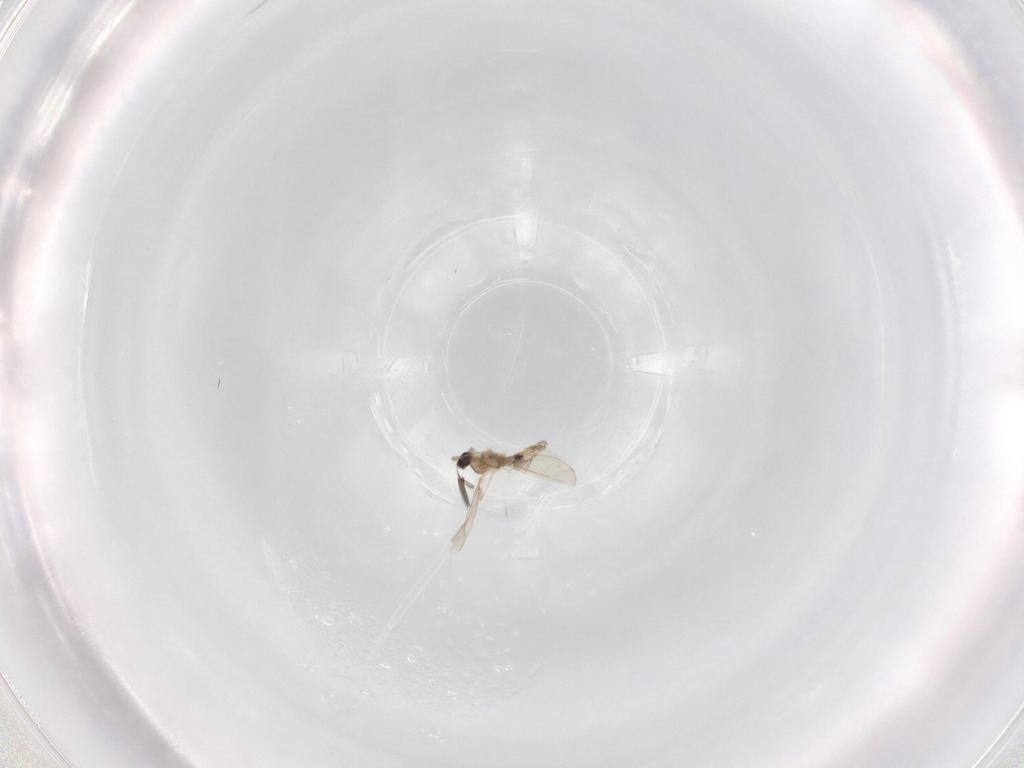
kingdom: Animalia
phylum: Arthropoda
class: Insecta
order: Diptera
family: Cecidomyiidae
